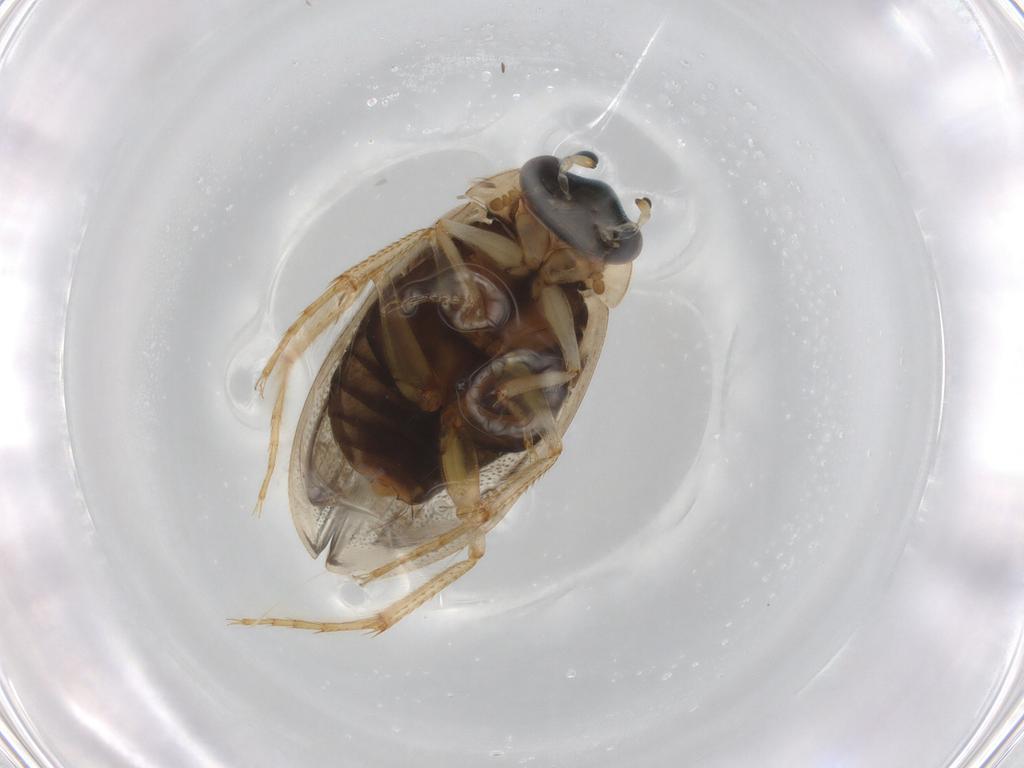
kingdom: Animalia
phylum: Arthropoda
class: Insecta
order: Coleoptera
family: Hydrophilidae
